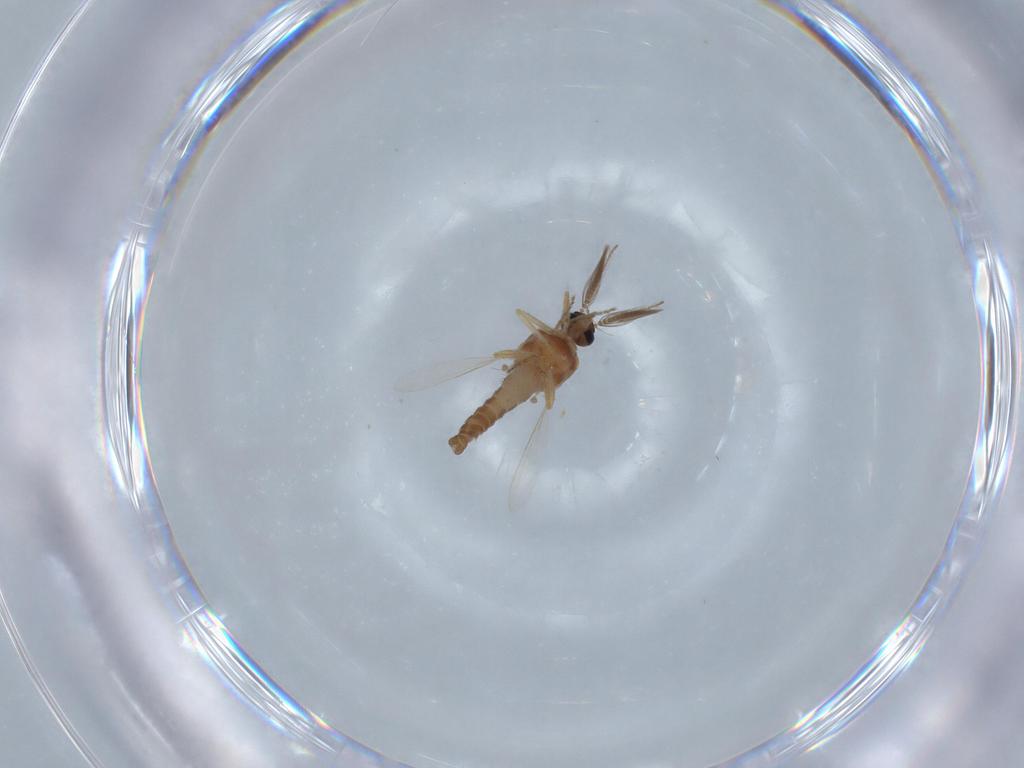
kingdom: Animalia
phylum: Arthropoda
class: Insecta
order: Diptera
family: Ceratopogonidae
